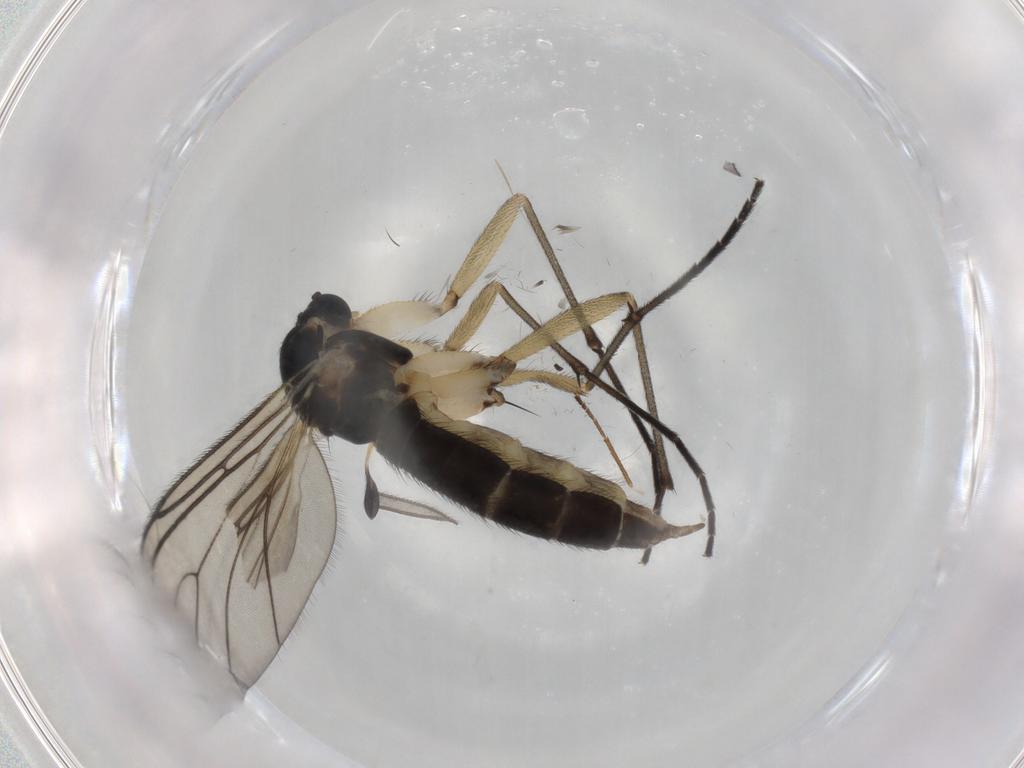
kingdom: Animalia
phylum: Arthropoda
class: Insecta
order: Diptera
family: Sciaridae
